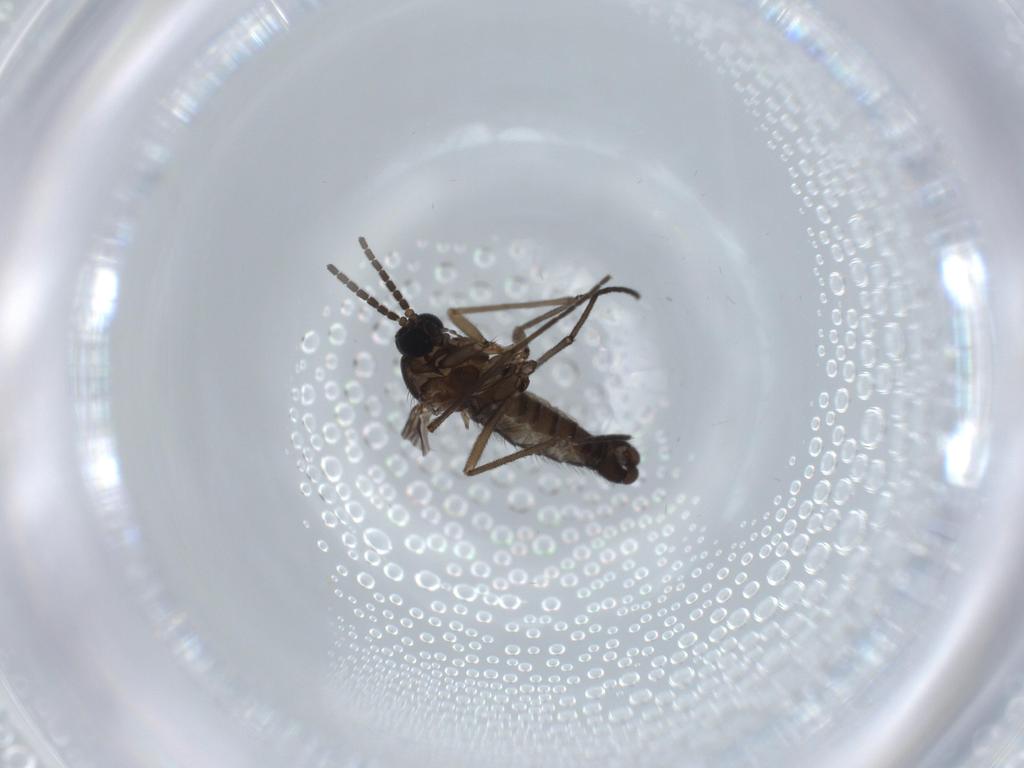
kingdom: Animalia
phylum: Arthropoda
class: Insecta
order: Diptera
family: Sciaridae
